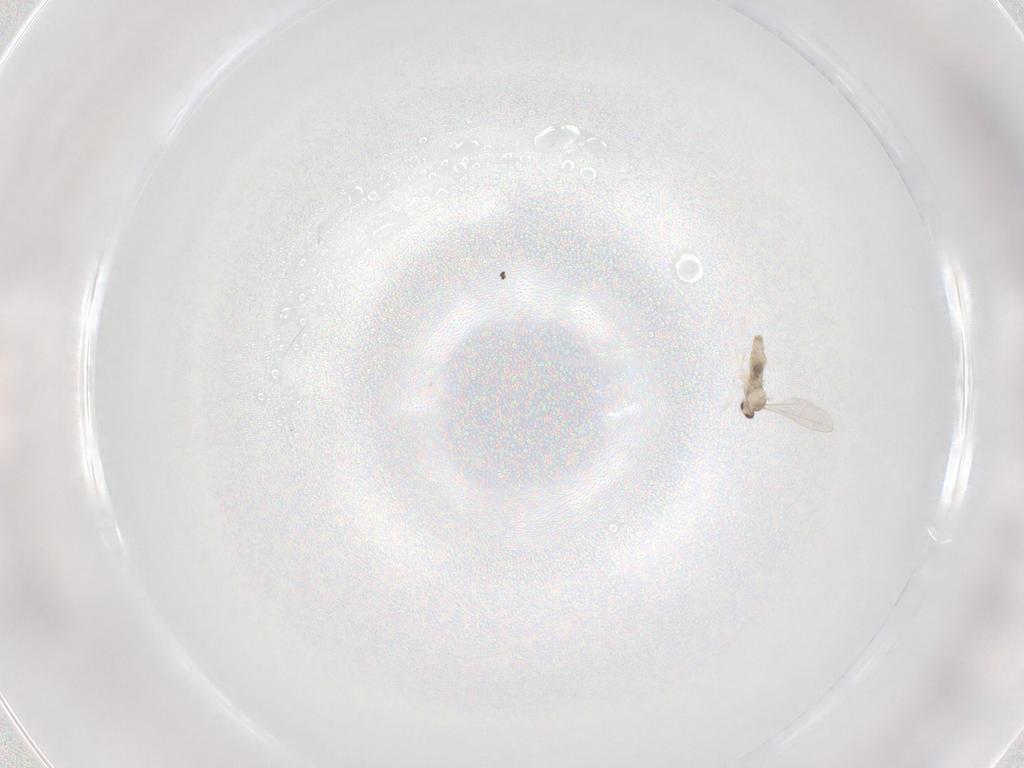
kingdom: Animalia
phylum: Arthropoda
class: Insecta
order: Diptera
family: Cecidomyiidae
